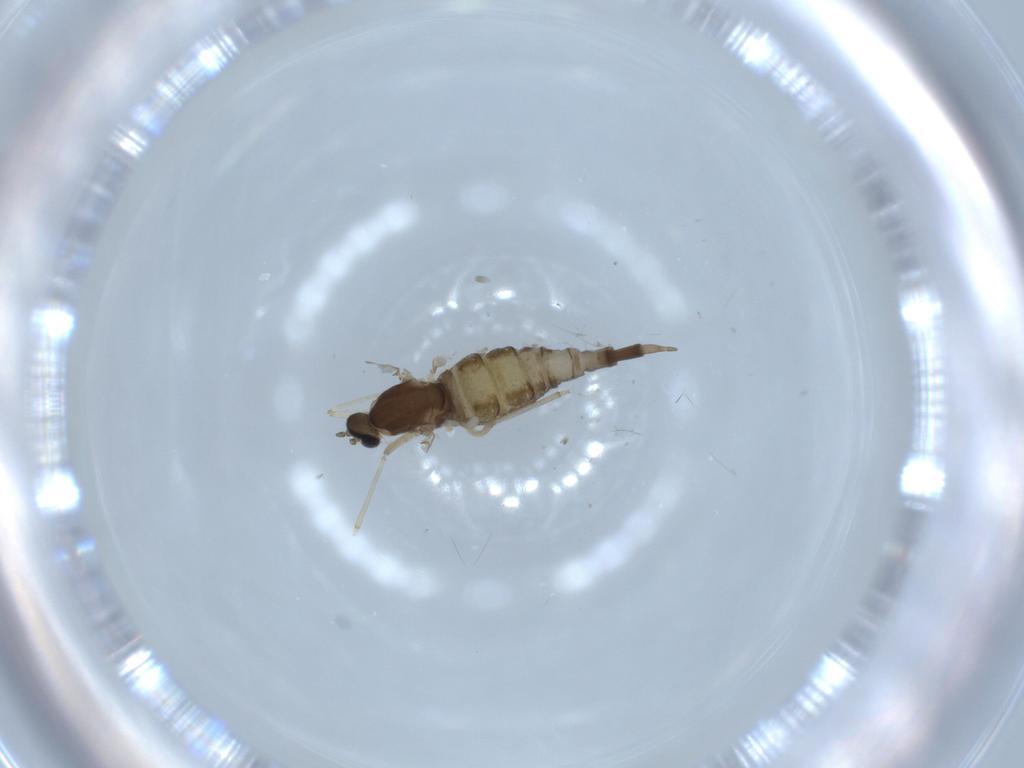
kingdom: Animalia
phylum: Arthropoda
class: Insecta
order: Diptera
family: Cecidomyiidae
